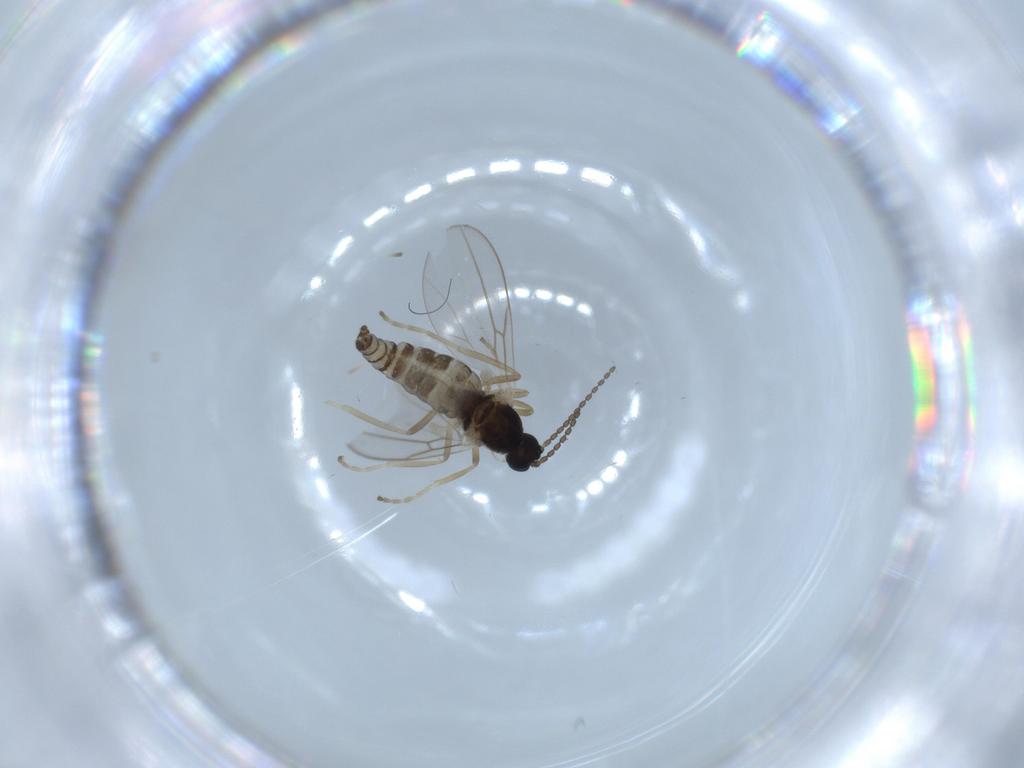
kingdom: Animalia
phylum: Arthropoda
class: Insecta
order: Diptera
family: Cecidomyiidae
